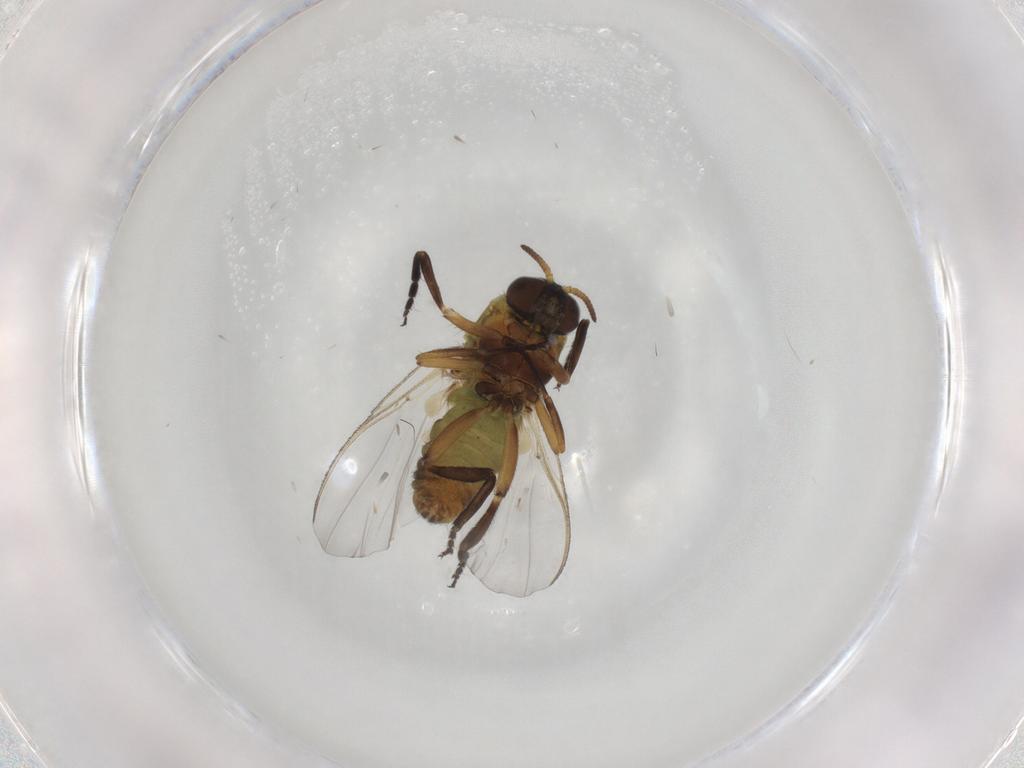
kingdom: Animalia
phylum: Arthropoda
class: Insecta
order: Diptera
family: Simuliidae
